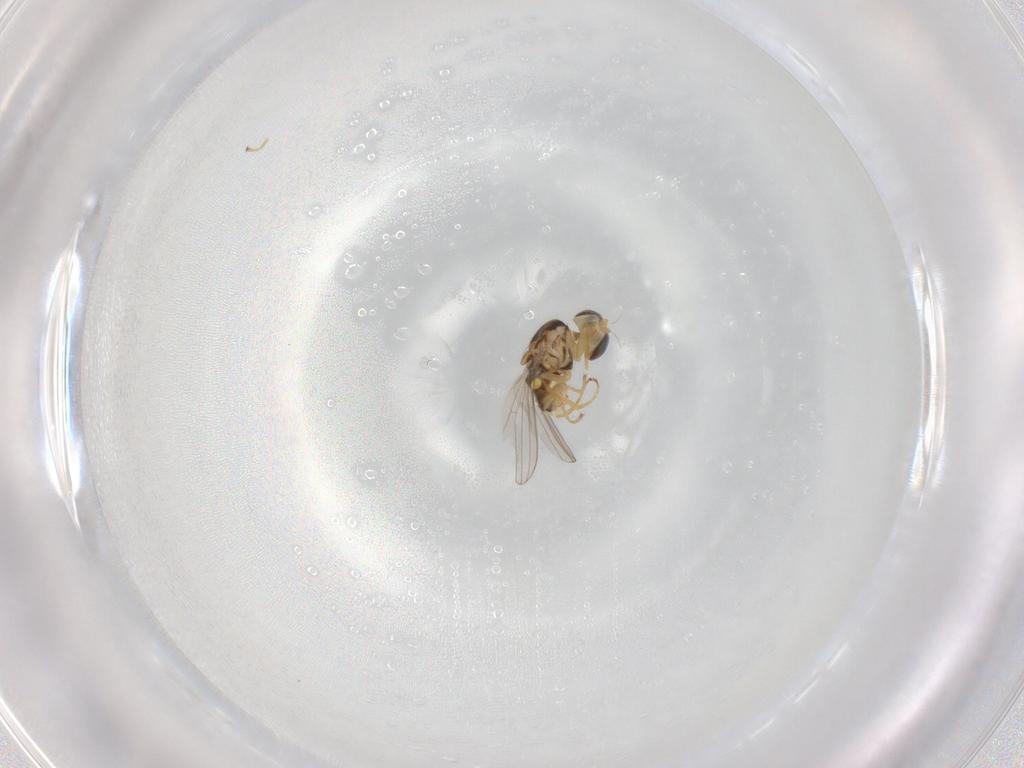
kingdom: Animalia
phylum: Arthropoda
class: Insecta
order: Diptera
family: Chyromyidae
